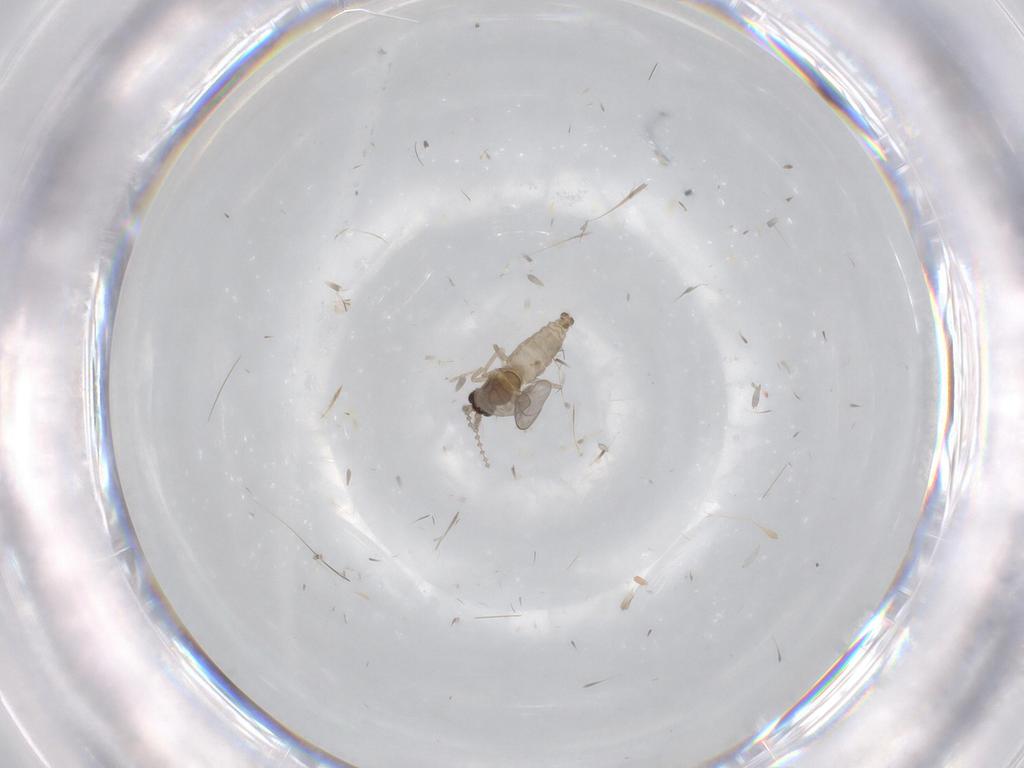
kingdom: Animalia
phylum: Arthropoda
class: Insecta
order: Diptera
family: Cecidomyiidae
